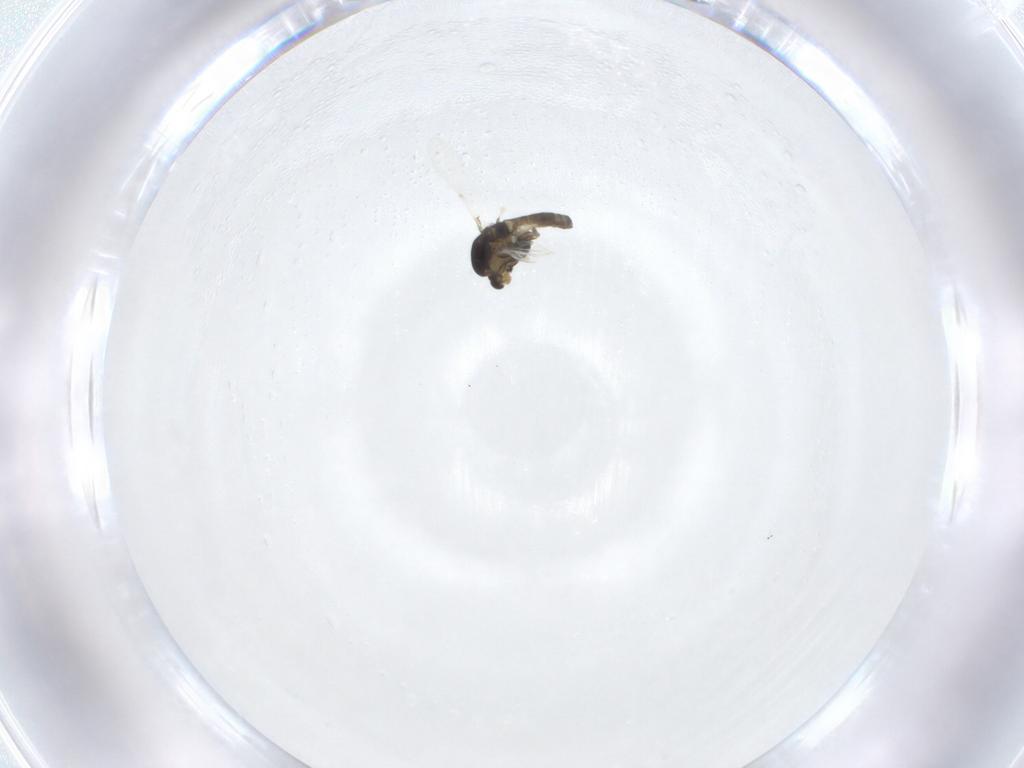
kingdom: Animalia
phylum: Arthropoda
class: Insecta
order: Diptera
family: Chironomidae
